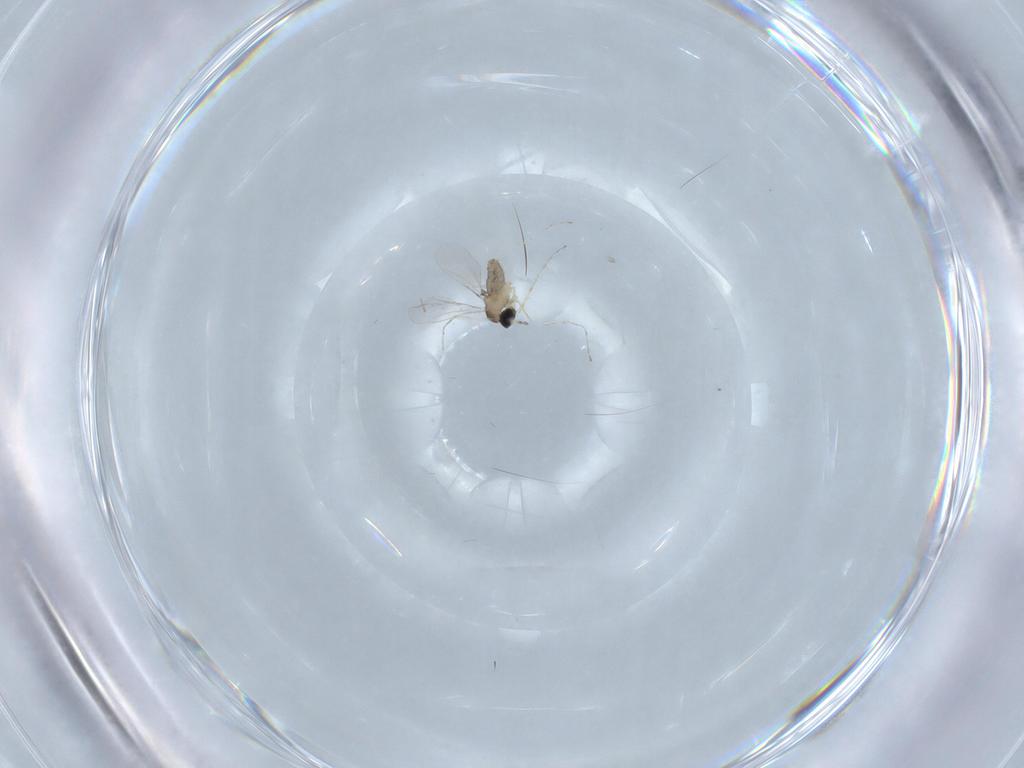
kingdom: Animalia
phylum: Arthropoda
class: Insecta
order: Diptera
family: Cecidomyiidae
